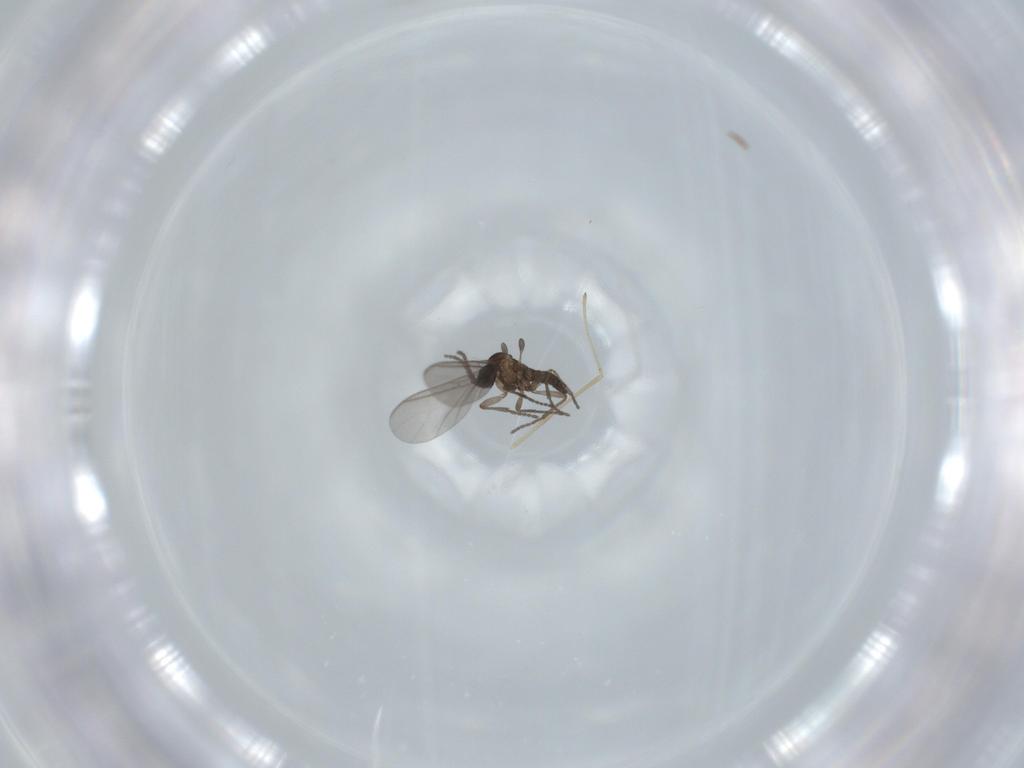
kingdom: Animalia
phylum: Arthropoda
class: Insecta
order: Diptera
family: Cecidomyiidae
